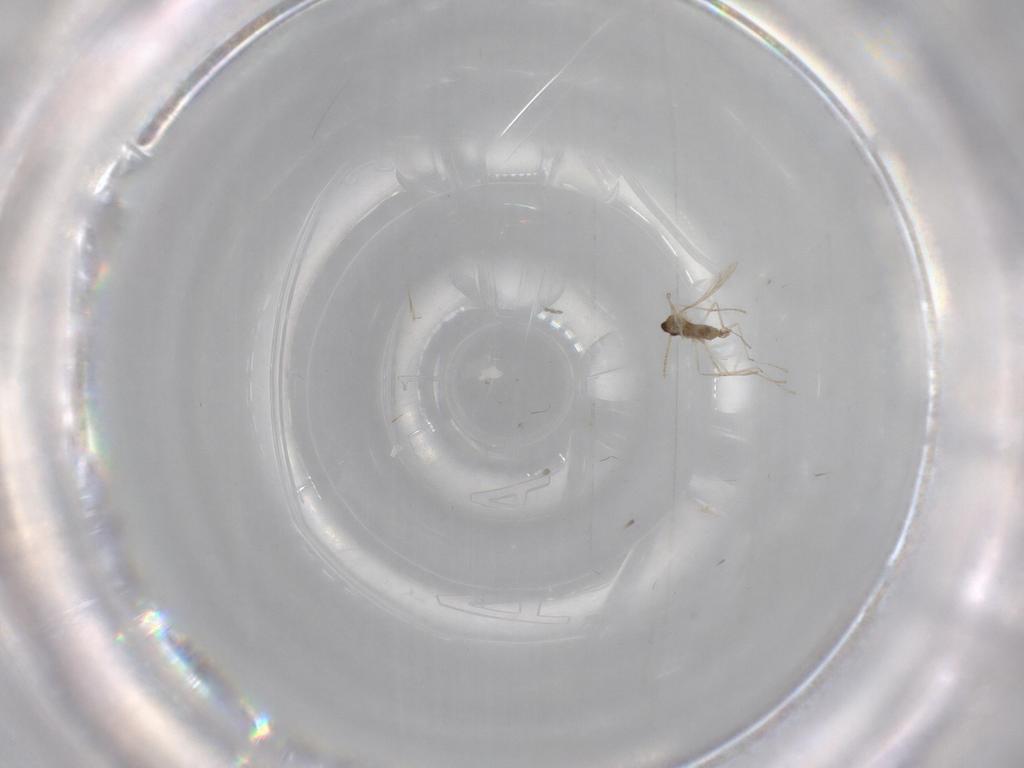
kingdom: Animalia
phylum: Arthropoda
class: Insecta
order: Diptera
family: Cecidomyiidae
